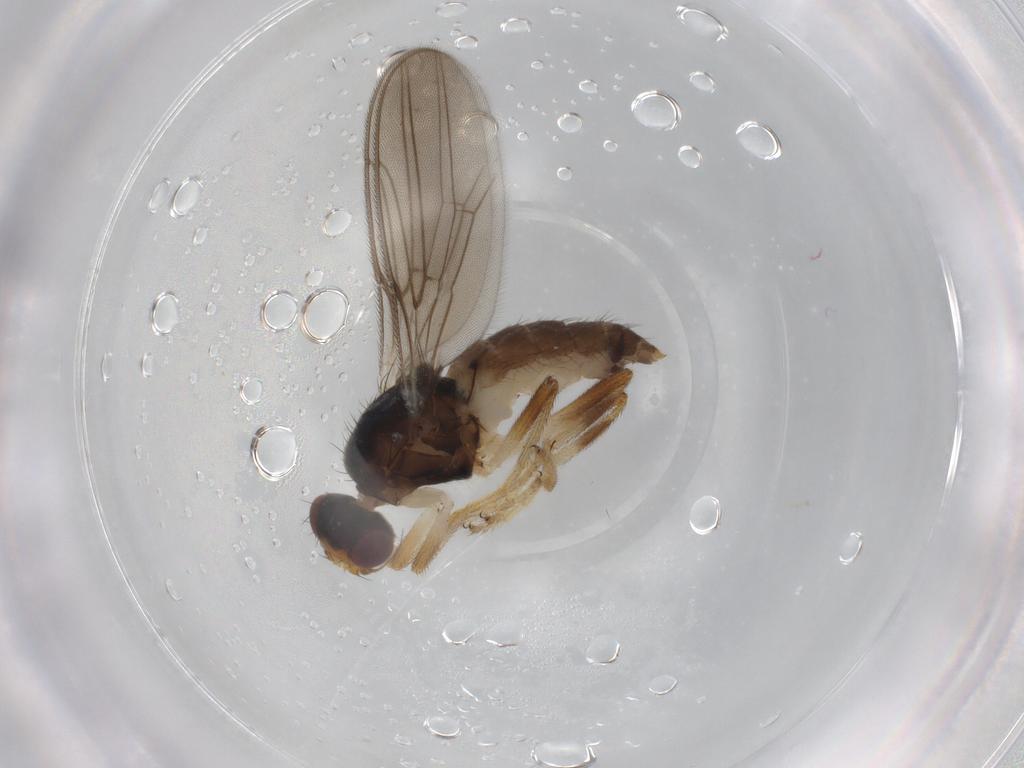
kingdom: Animalia
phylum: Arthropoda
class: Insecta
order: Diptera
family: Chloropidae
